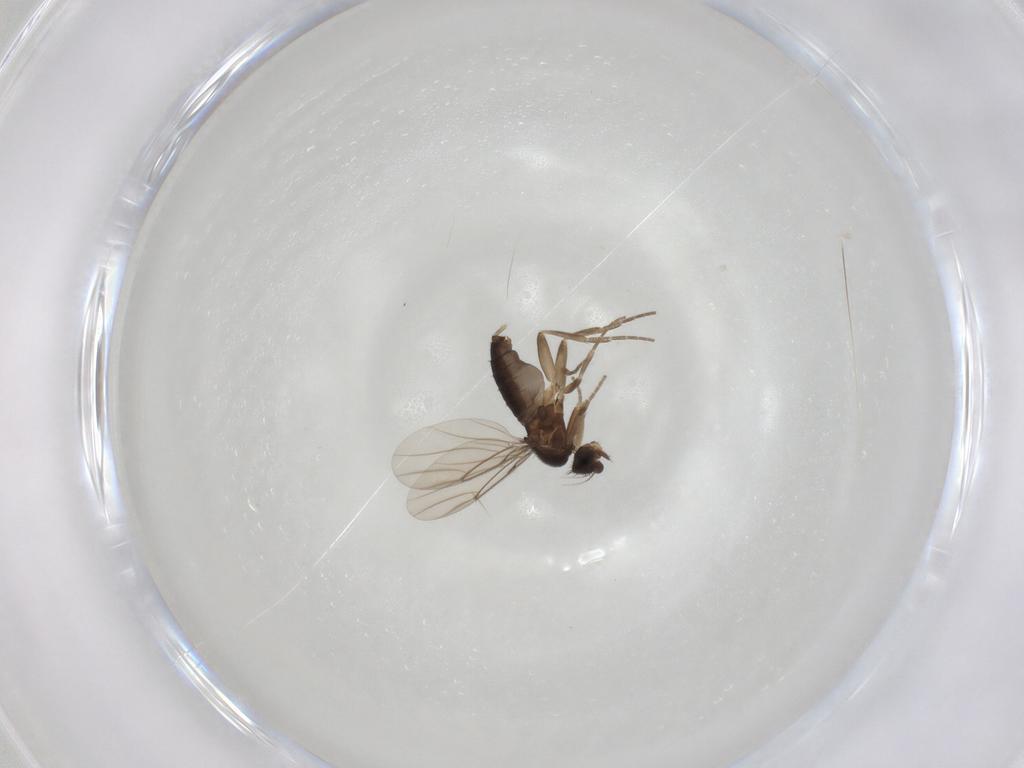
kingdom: Animalia
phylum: Arthropoda
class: Insecta
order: Diptera
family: Sciaridae
